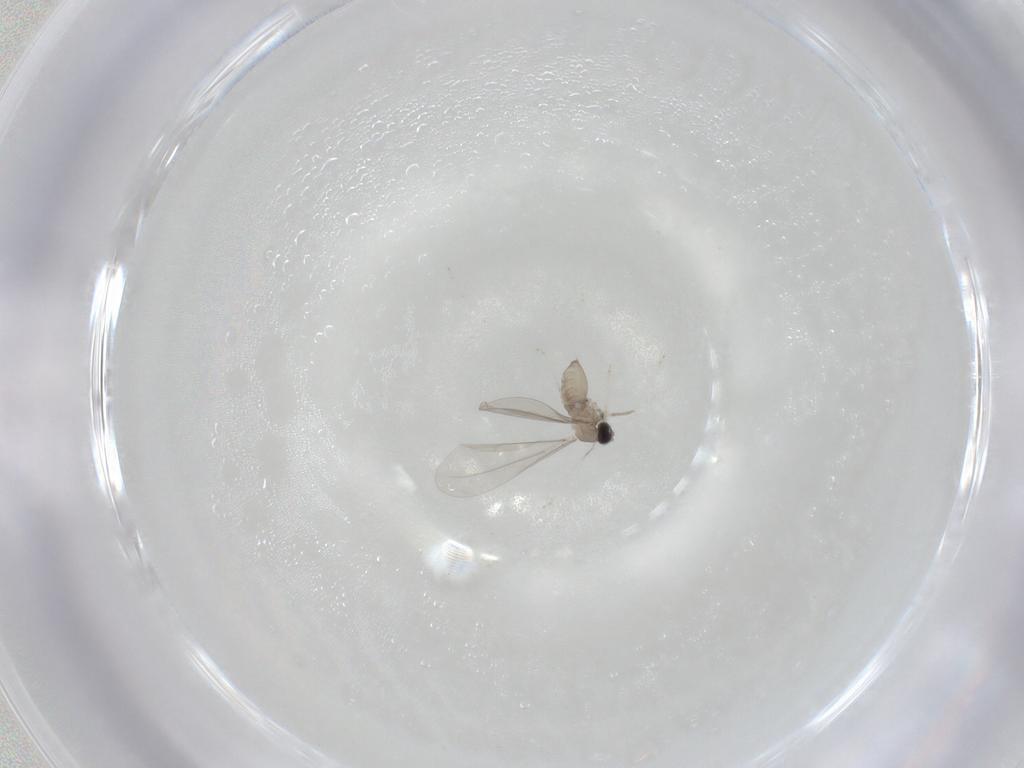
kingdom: Animalia
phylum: Arthropoda
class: Insecta
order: Diptera
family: Cecidomyiidae
